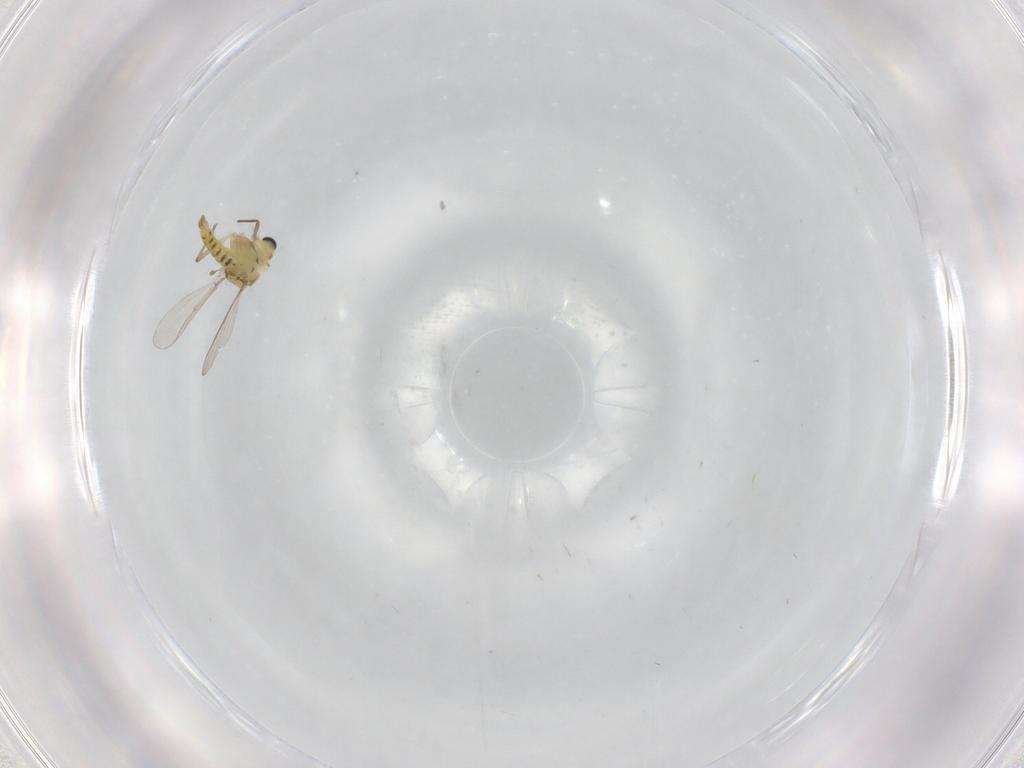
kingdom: Animalia
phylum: Arthropoda
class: Insecta
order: Diptera
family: Chironomidae
